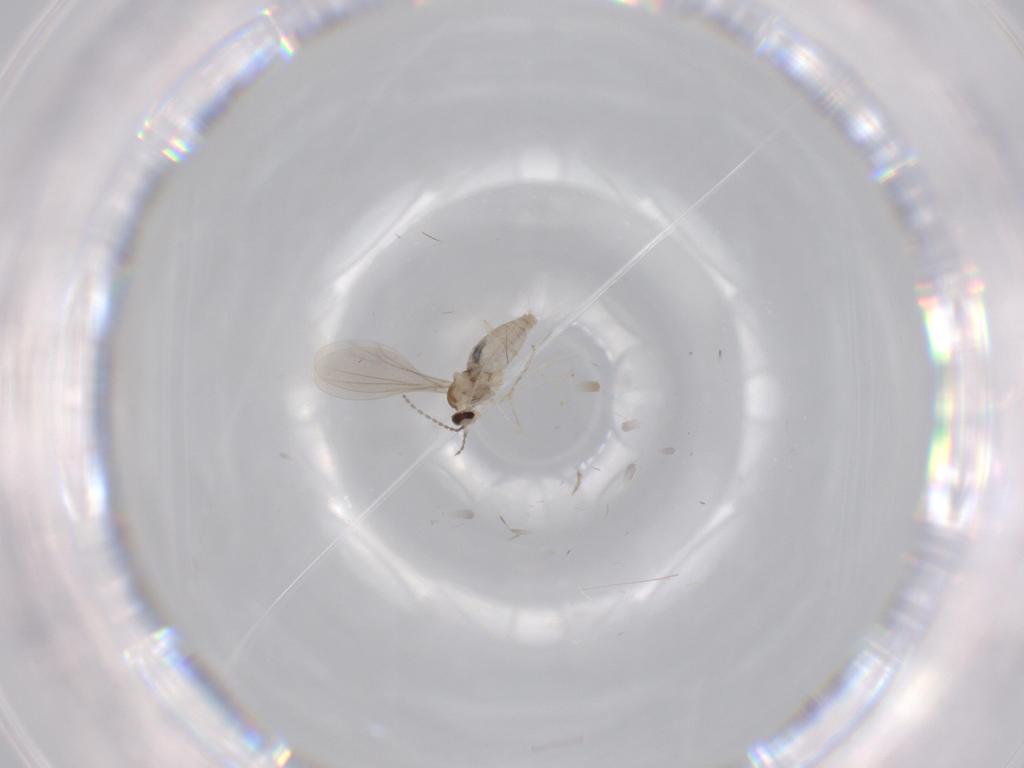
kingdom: Animalia
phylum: Arthropoda
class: Insecta
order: Diptera
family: Cecidomyiidae
